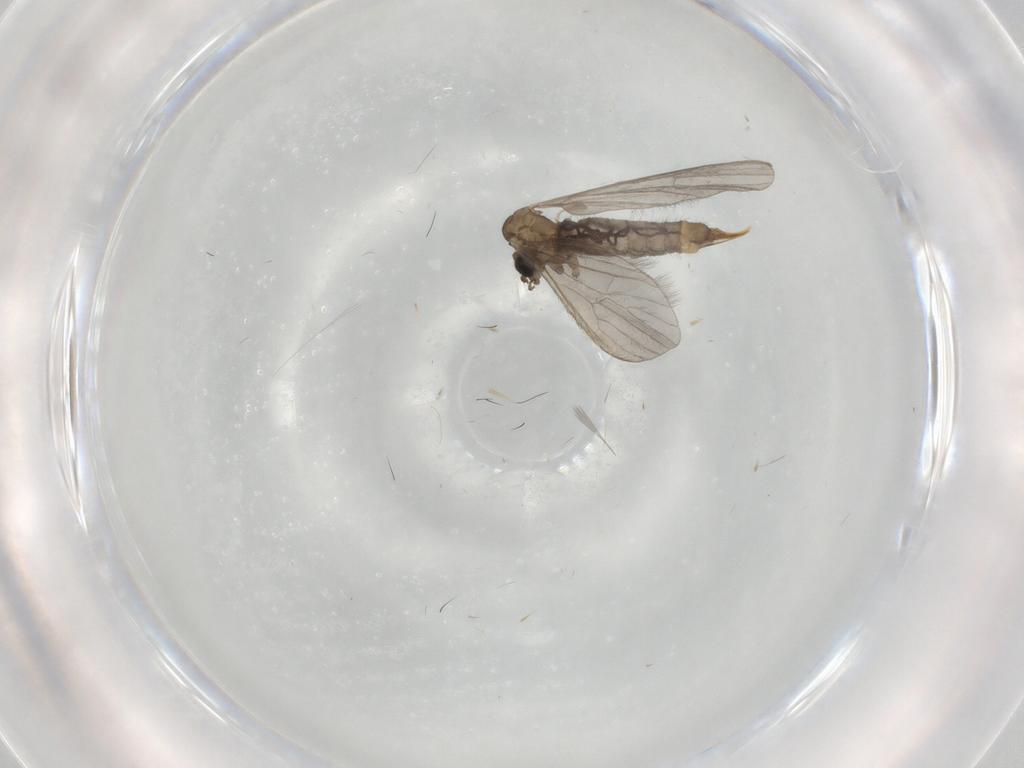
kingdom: Animalia
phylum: Arthropoda
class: Insecta
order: Diptera
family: Limoniidae
